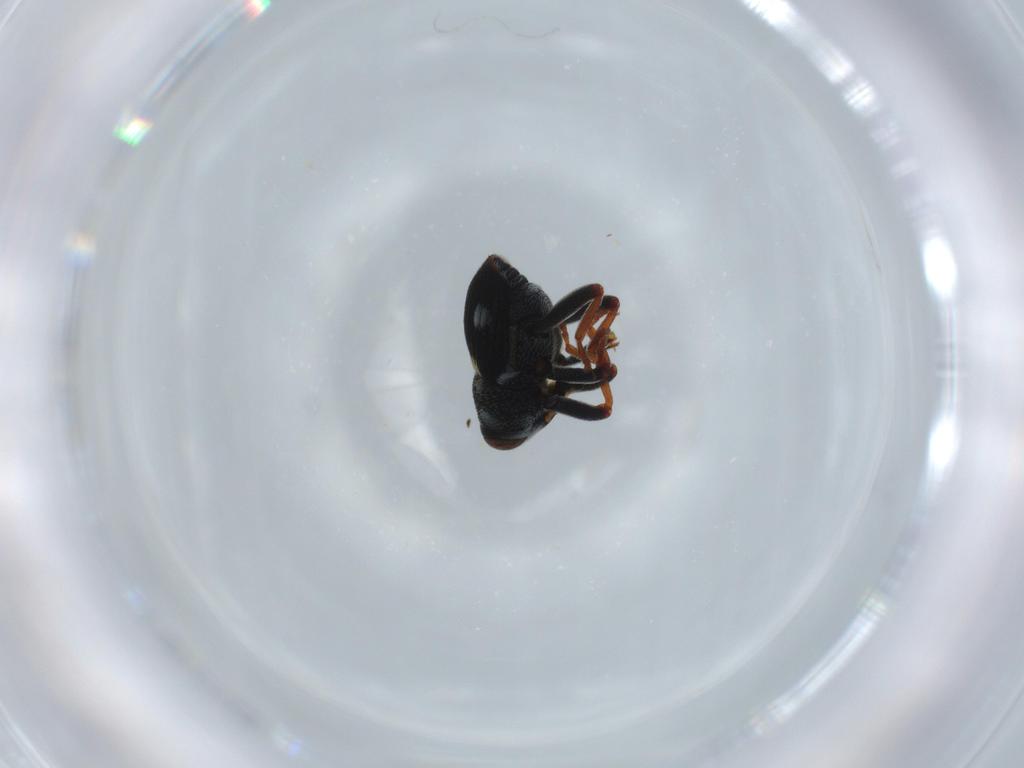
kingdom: Animalia
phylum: Arthropoda
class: Insecta
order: Coleoptera
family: Curculionidae
